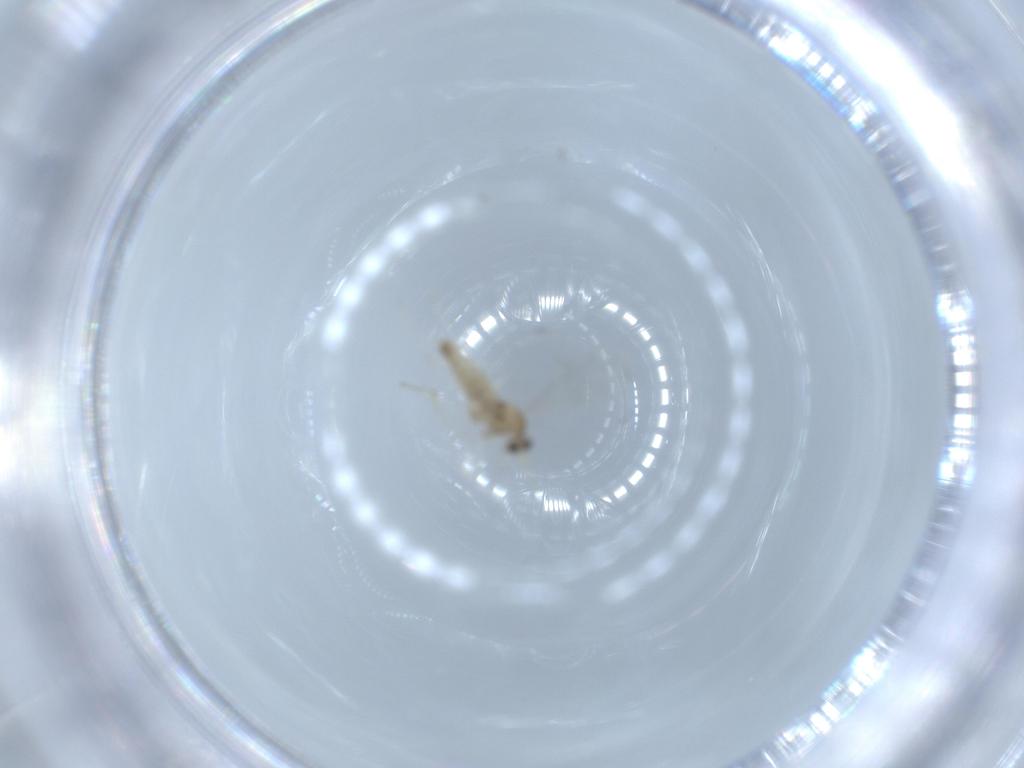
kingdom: Animalia
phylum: Arthropoda
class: Insecta
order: Diptera
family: Cecidomyiidae
